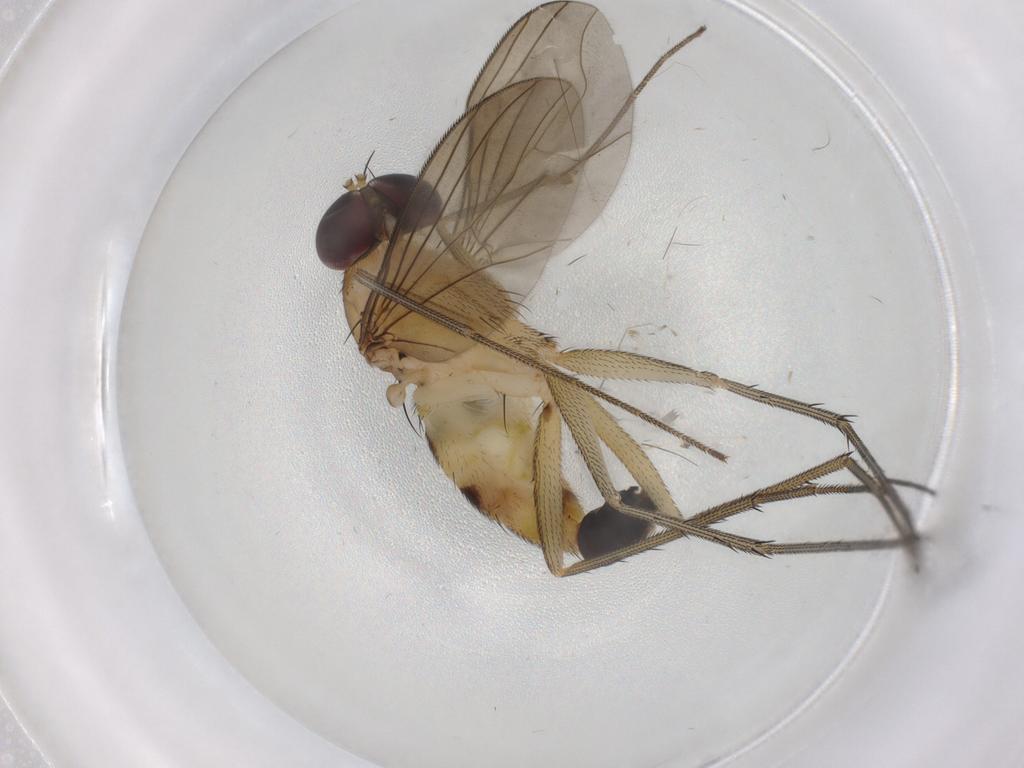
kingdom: Animalia
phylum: Arthropoda
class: Insecta
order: Diptera
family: Dolichopodidae
